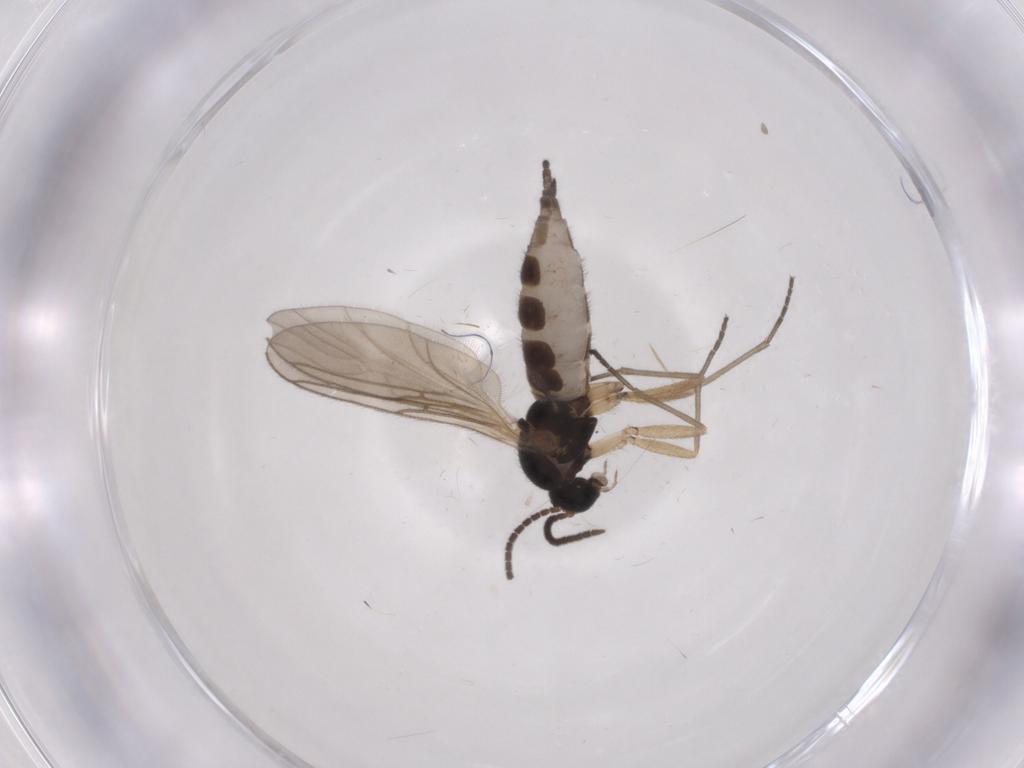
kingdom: Animalia
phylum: Arthropoda
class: Insecta
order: Diptera
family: Sciaridae
